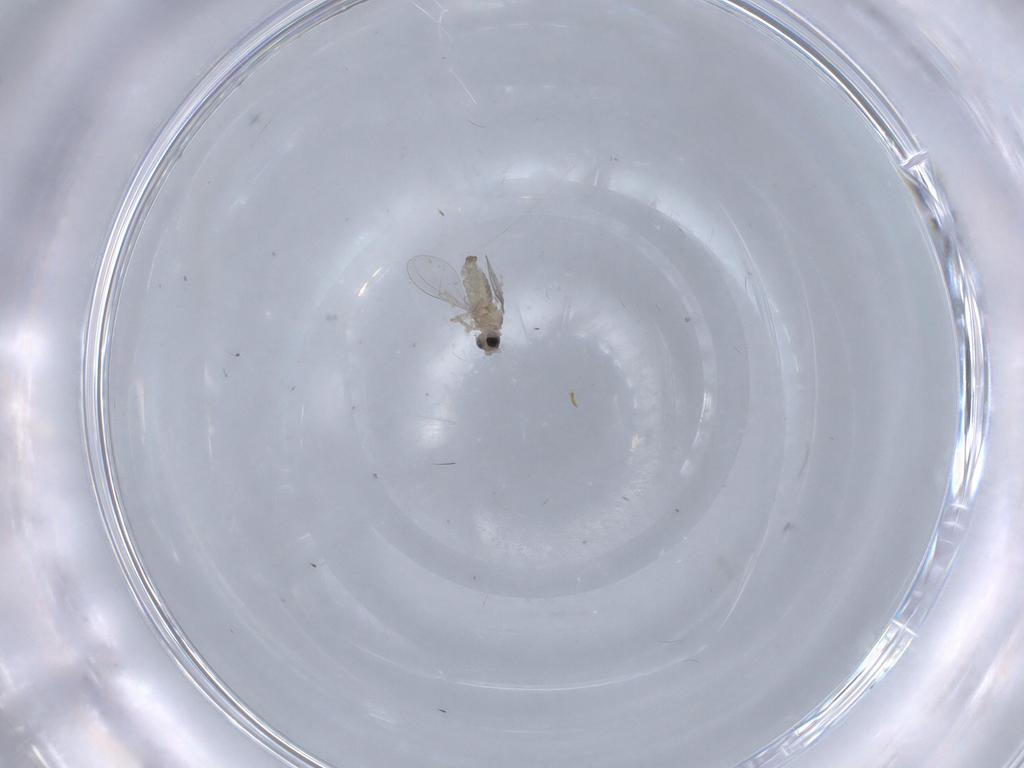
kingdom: Animalia
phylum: Arthropoda
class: Insecta
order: Diptera
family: Cecidomyiidae
